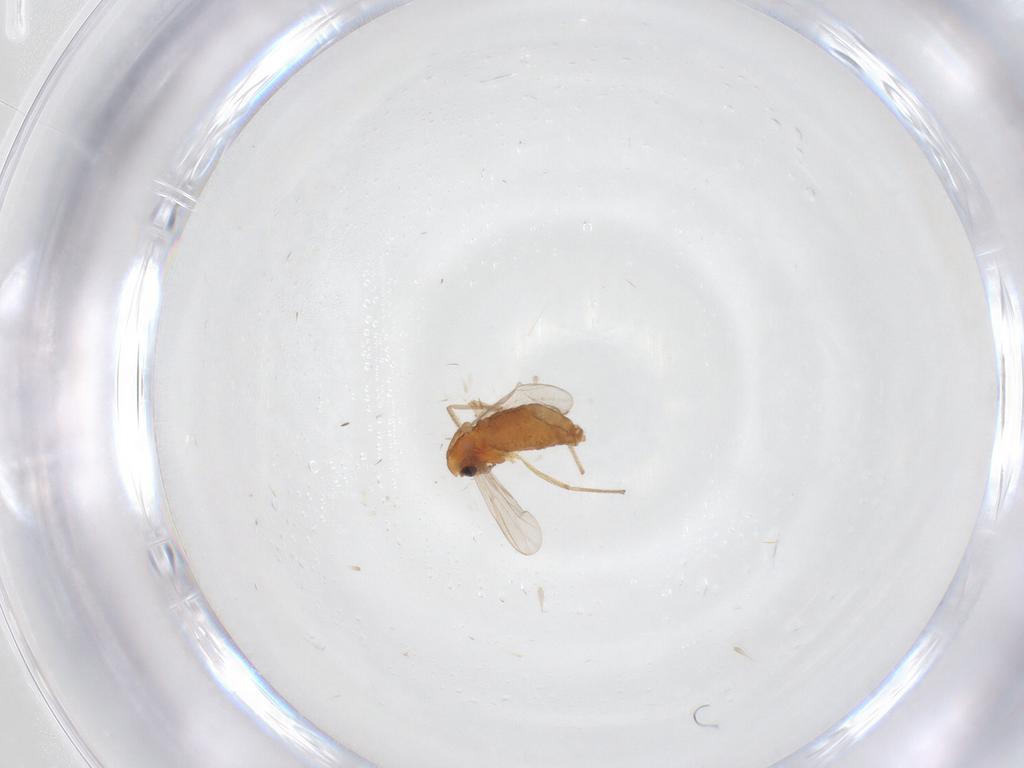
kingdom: Animalia
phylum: Arthropoda
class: Insecta
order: Diptera
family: Chironomidae
